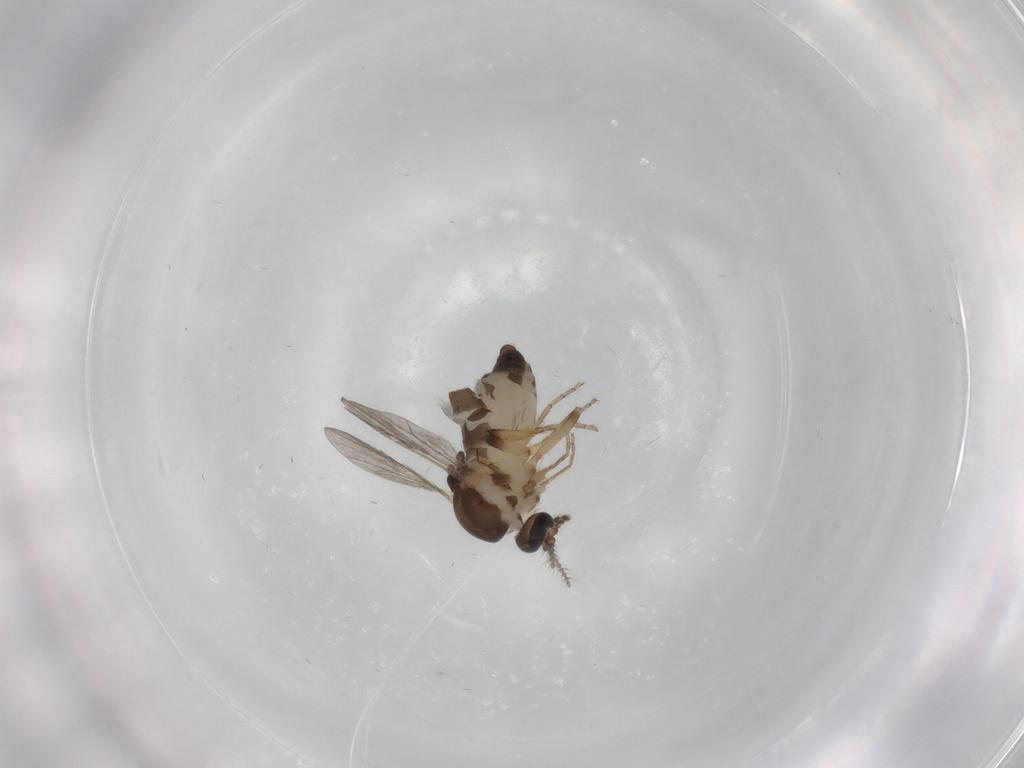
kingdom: Animalia
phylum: Arthropoda
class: Insecta
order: Diptera
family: Ceratopogonidae
